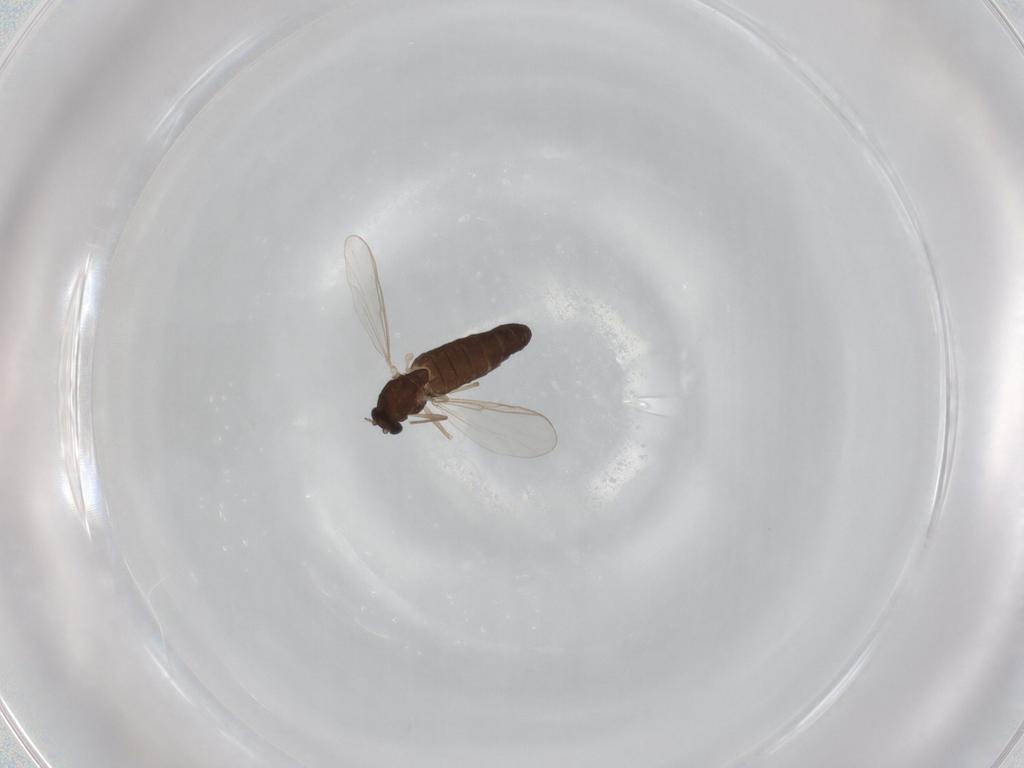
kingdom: Animalia
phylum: Arthropoda
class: Insecta
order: Diptera
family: Chironomidae
